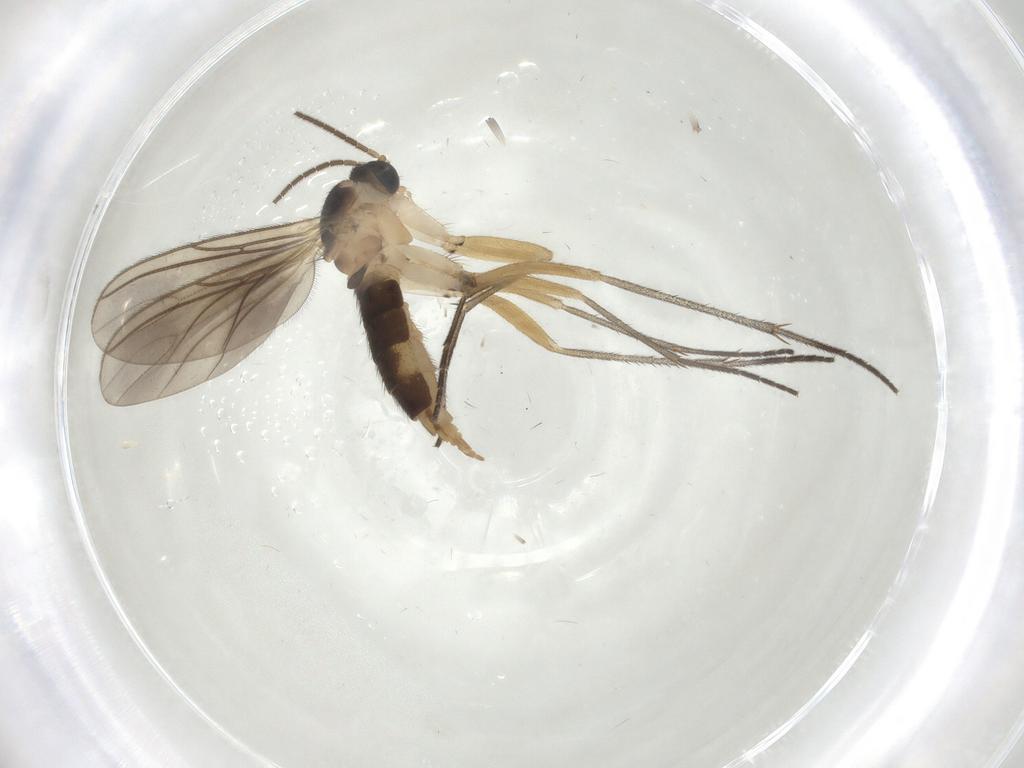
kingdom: Animalia
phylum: Arthropoda
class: Insecta
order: Diptera
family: Sciaridae
